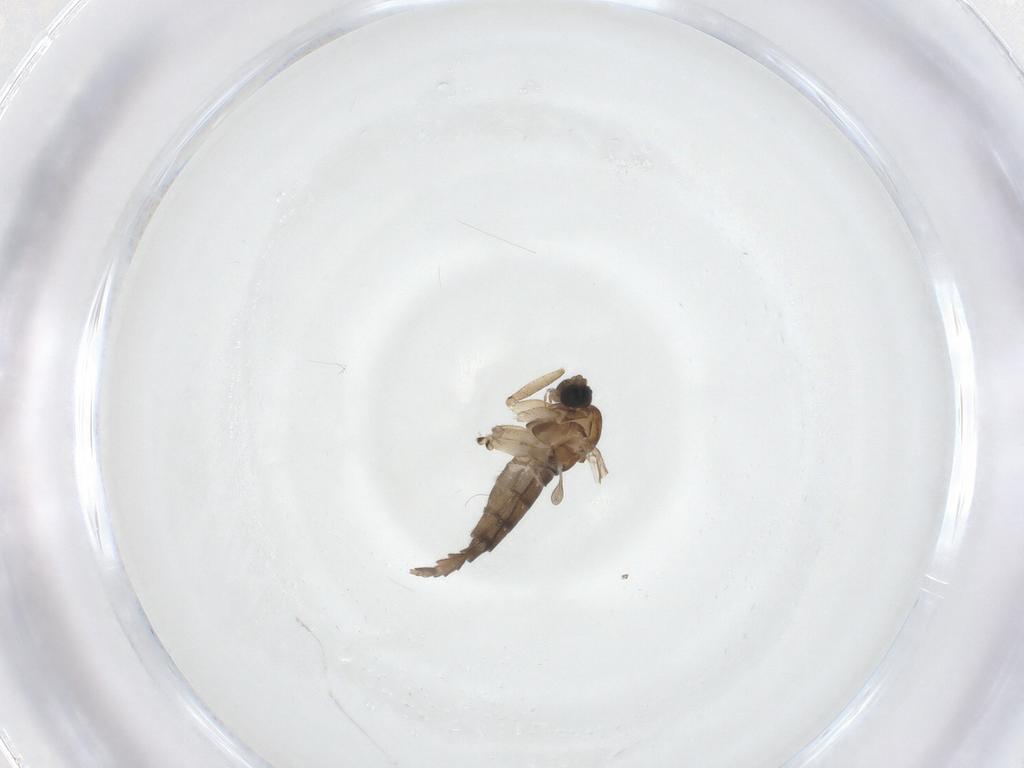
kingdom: Animalia
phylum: Arthropoda
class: Insecta
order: Diptera
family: Sciaridae
